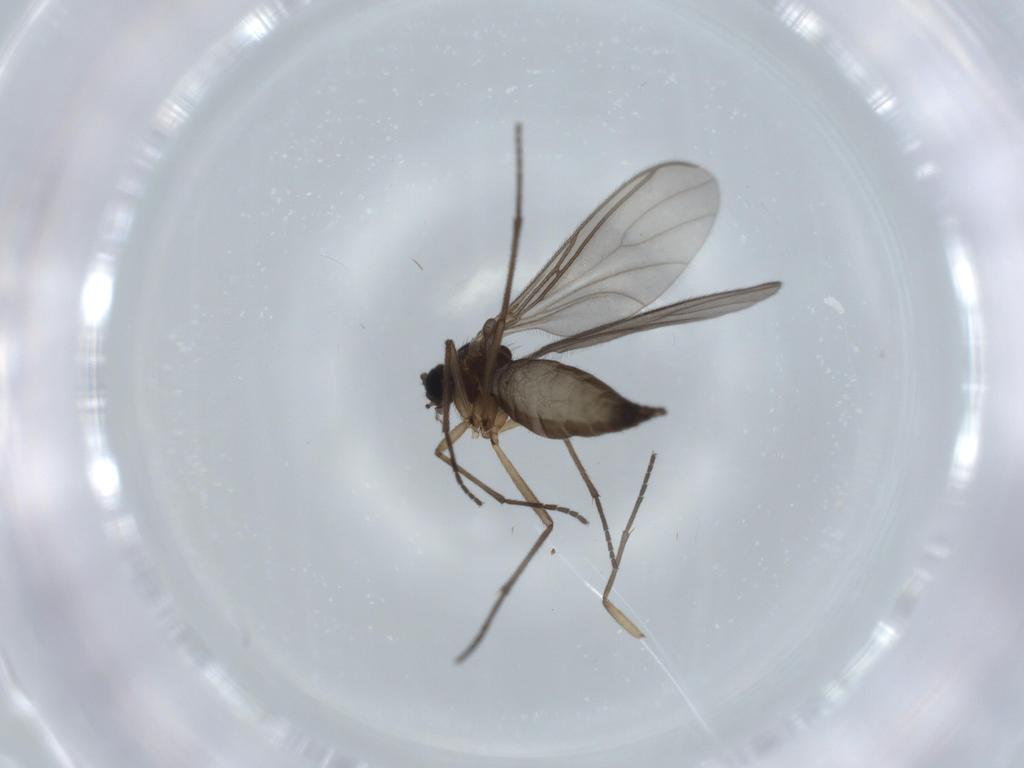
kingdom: Animalia
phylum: Arthropoda
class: Insecta
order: Diptera
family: Sciaridae
